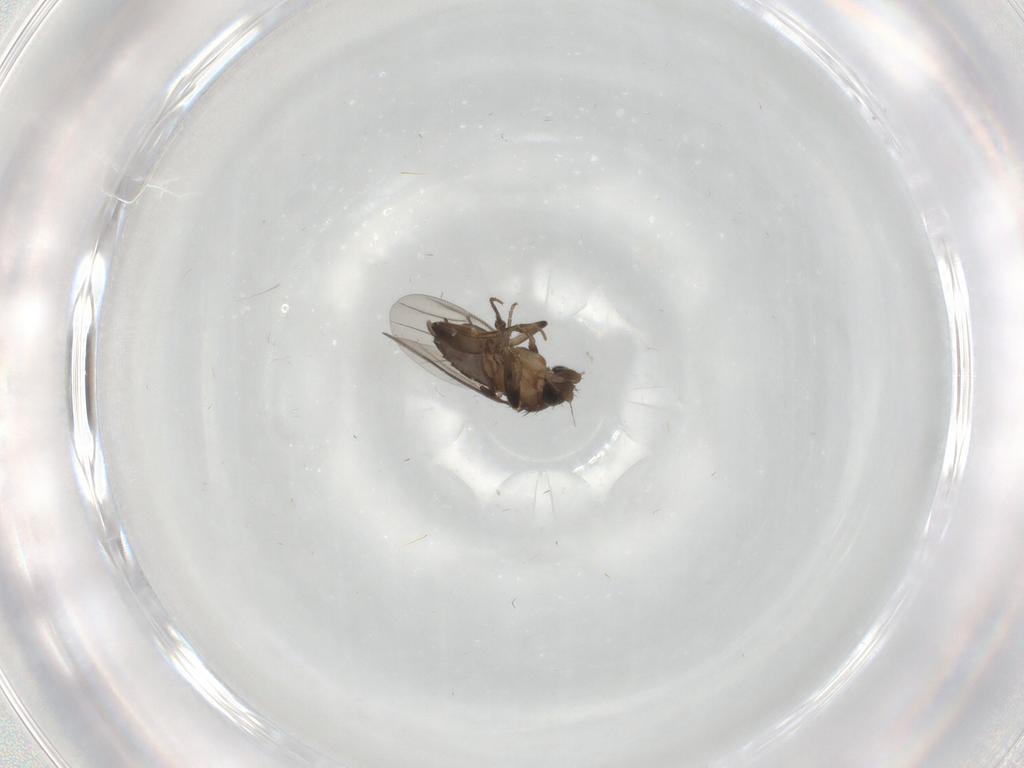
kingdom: Animalia
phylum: Arthropoda
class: Insecta
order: Diptera
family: Phoridae
